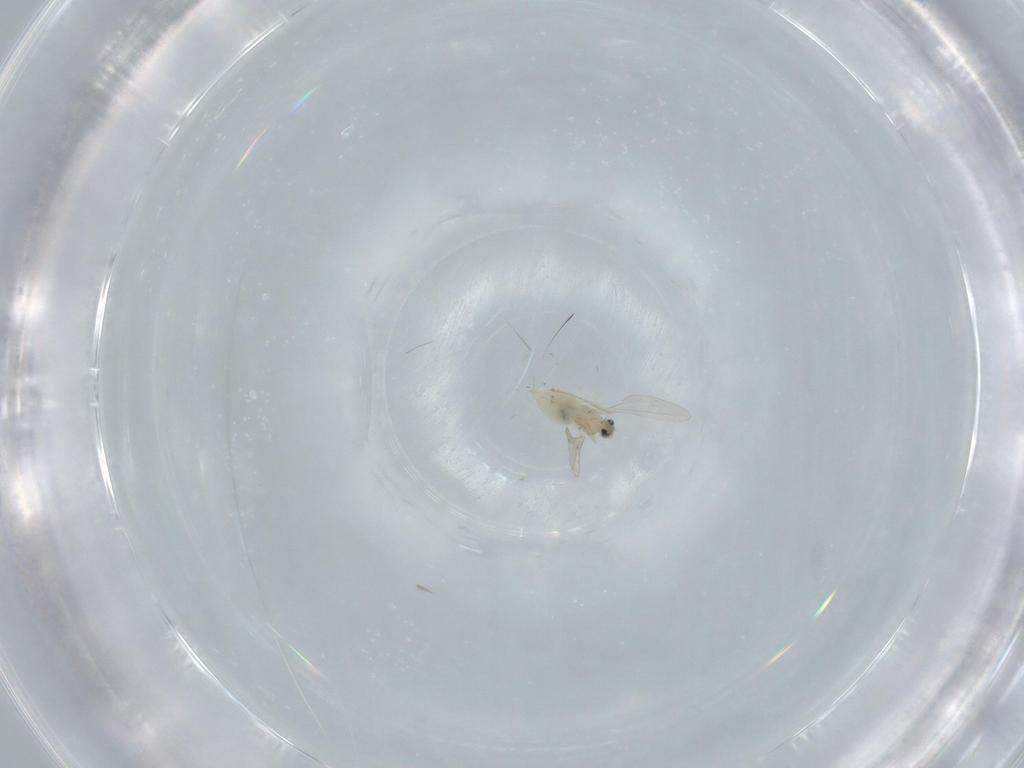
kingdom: Animalia
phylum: Arthropoda
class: Insecta
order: Diptera
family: Cecidomyiidae
